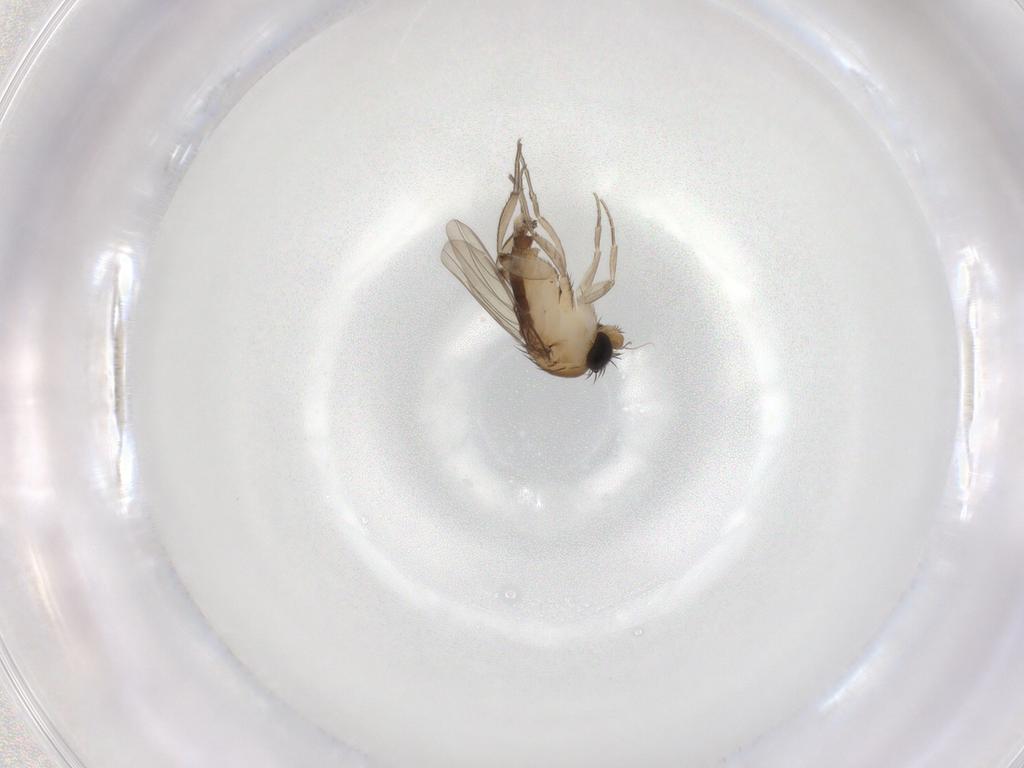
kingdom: Animalia
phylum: Arthropoda
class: Insecta
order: Diptera
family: Phoridae
